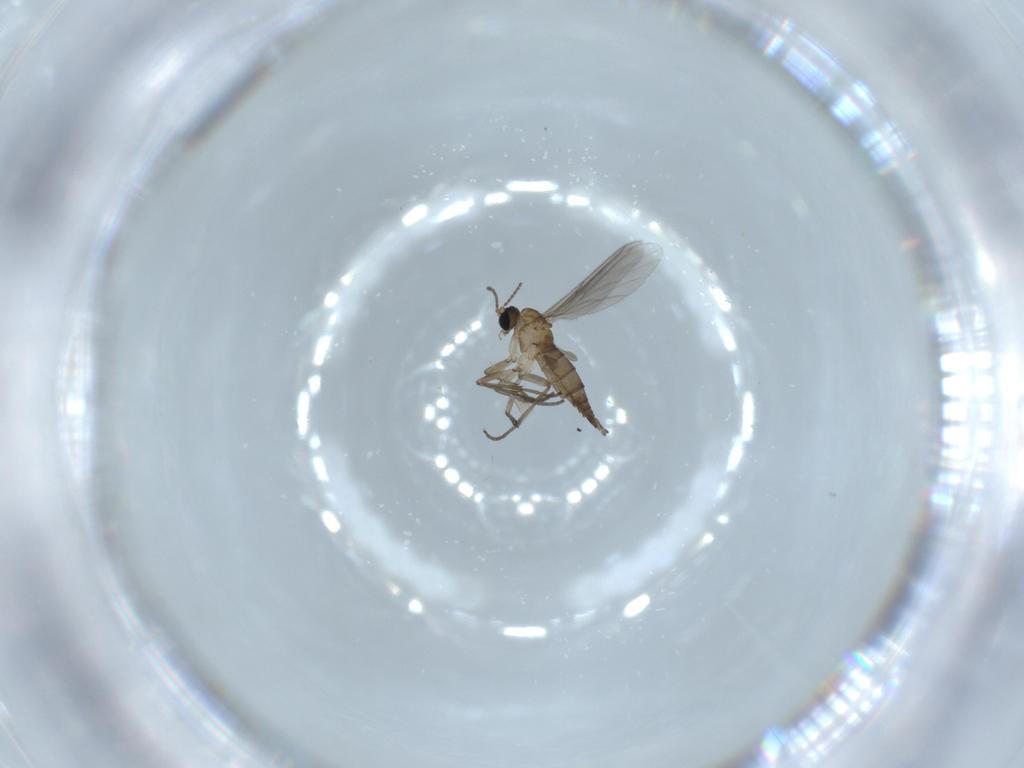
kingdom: Animalia
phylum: Arthropoda
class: Insecta
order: Diptera
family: Sciaridae
